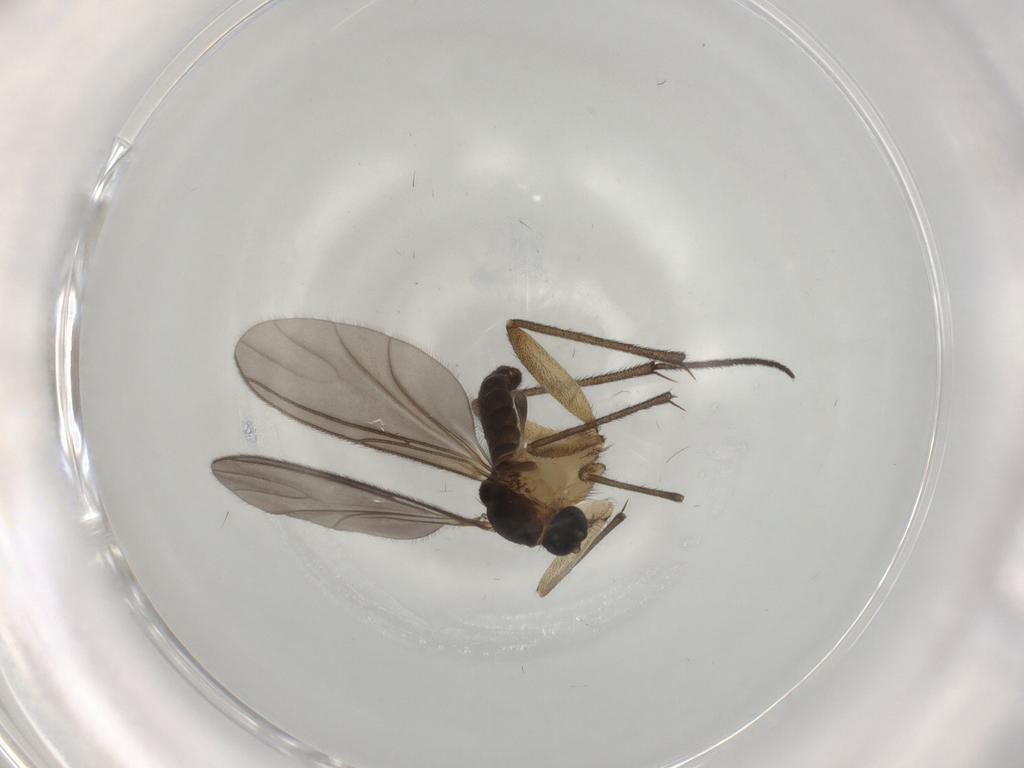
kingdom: Animalia
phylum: Arthropoda
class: Insecta
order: Diptera
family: Sciaridae
